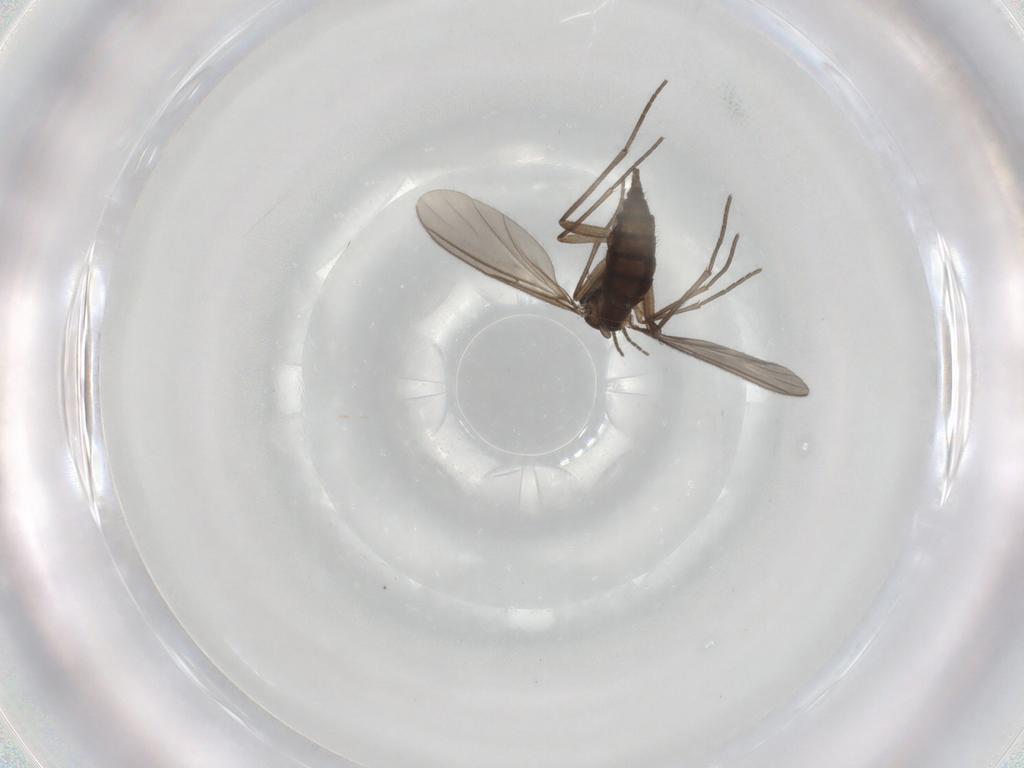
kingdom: Animalia
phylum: Arthropoda
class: Insecta
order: Diptera
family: Sciaridae
